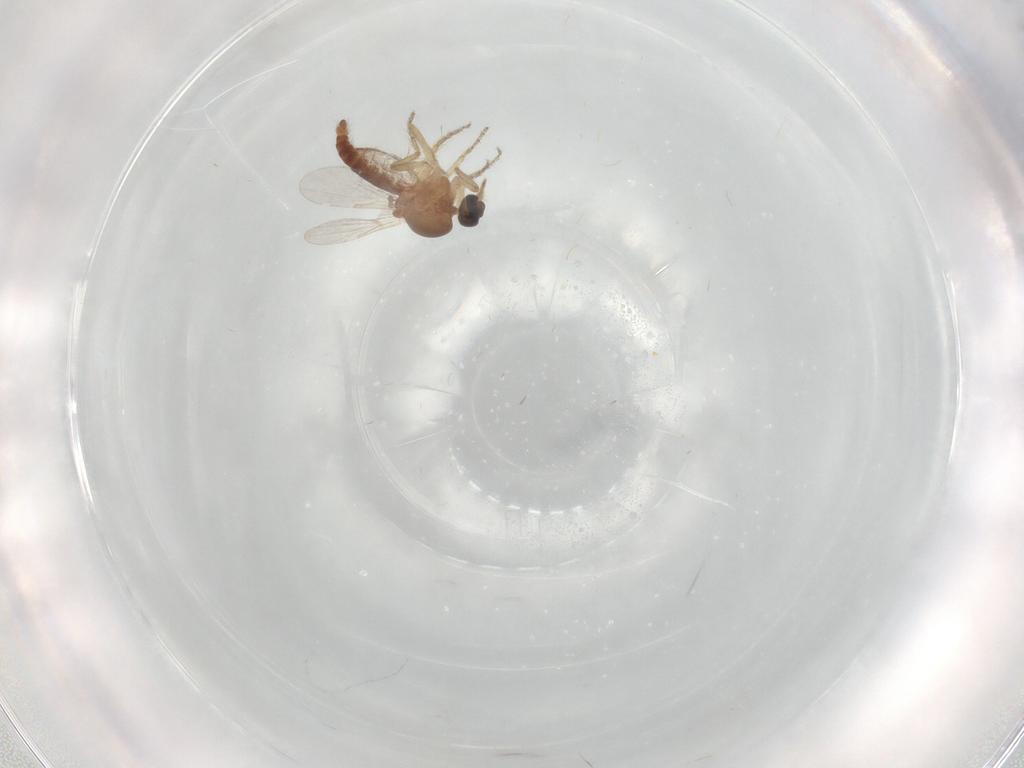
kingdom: Animalia
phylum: Arthropoda
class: Insecta
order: Diptera
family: Ceratopogonidae
